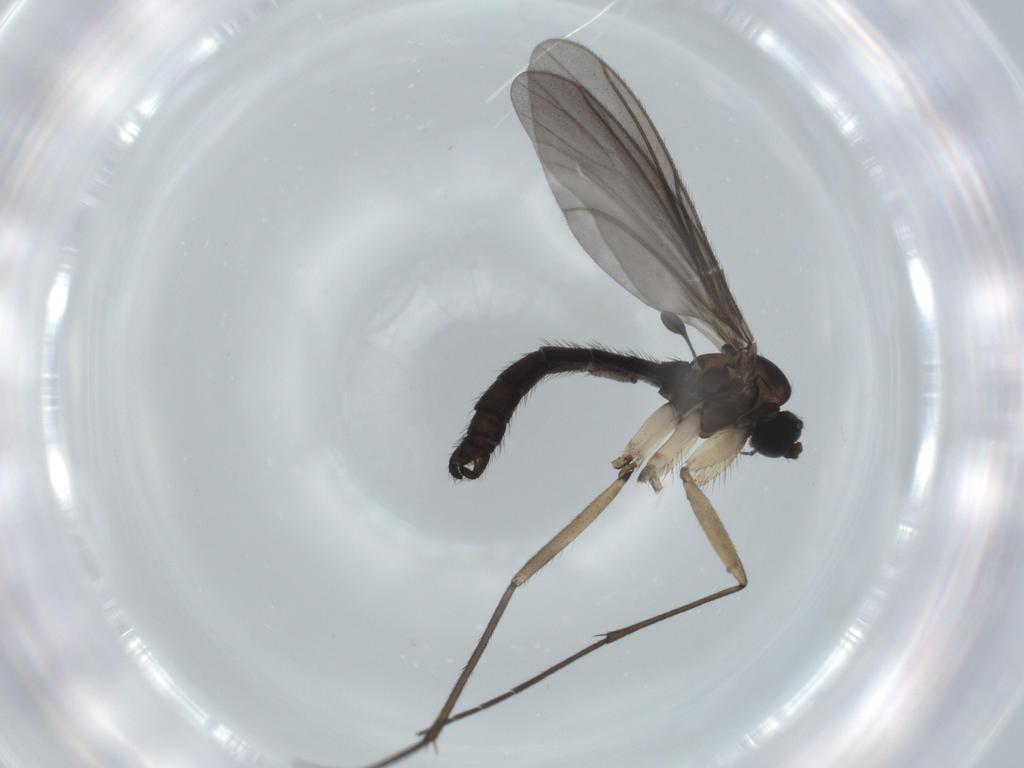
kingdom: Animalia
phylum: Arthropoda
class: Insecta
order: Diptera
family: Sciaridae
